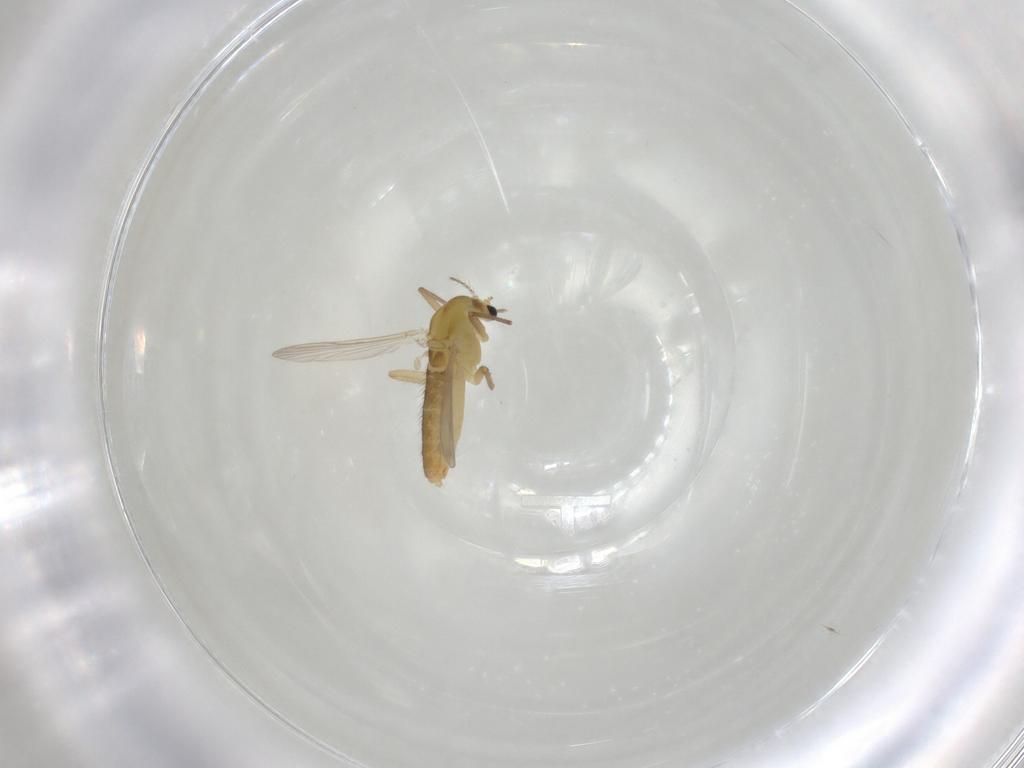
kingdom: Animalia
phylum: Arthropoda
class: Insecta
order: Diptera
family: Chironomidae
